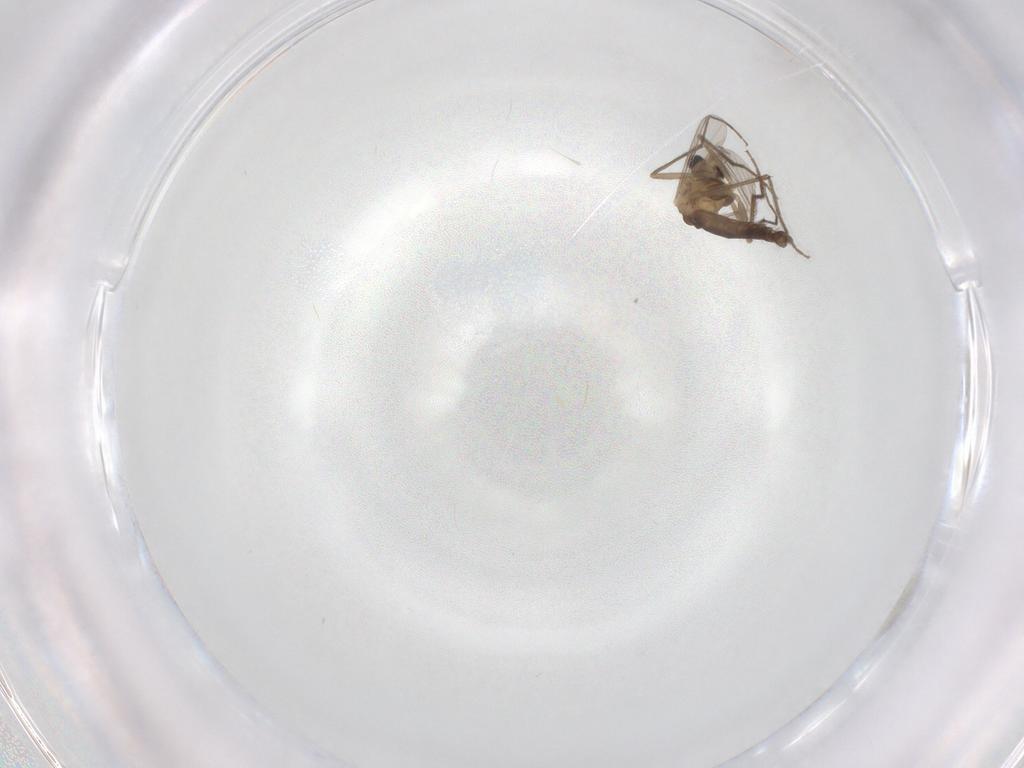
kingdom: Animalia
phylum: Arthropoda
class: Insecta
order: Diptera
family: Chironomidae
